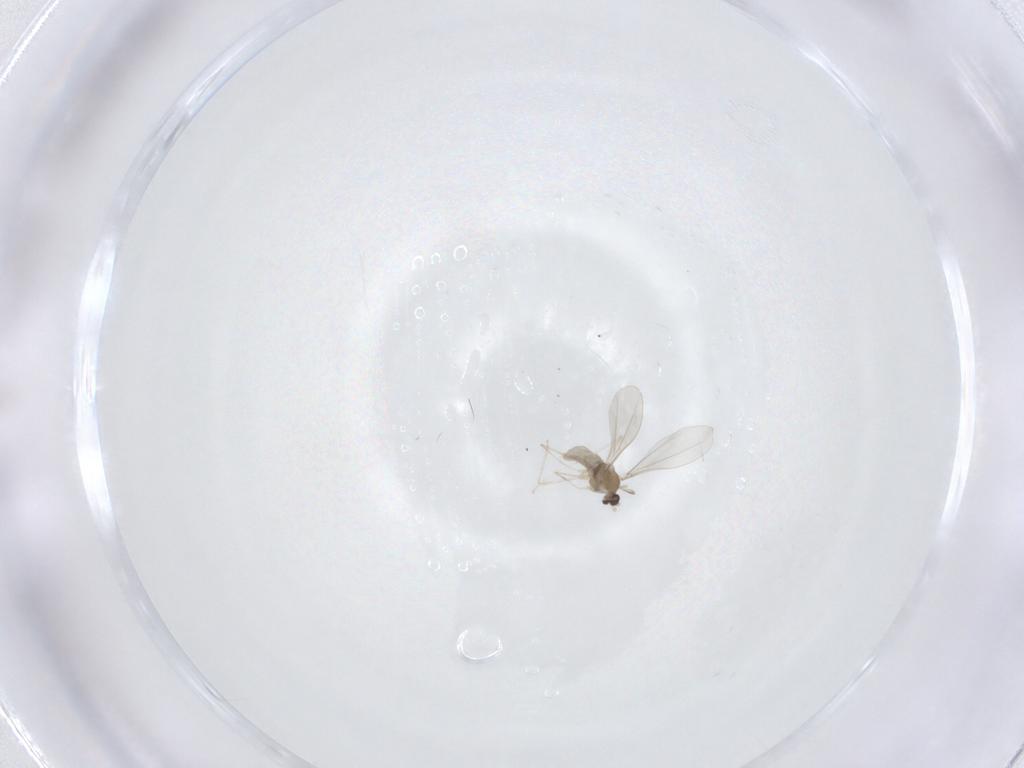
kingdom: Animalia
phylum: Arthropoda
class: Insecta
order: Diptera
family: Cecidomyiidae
